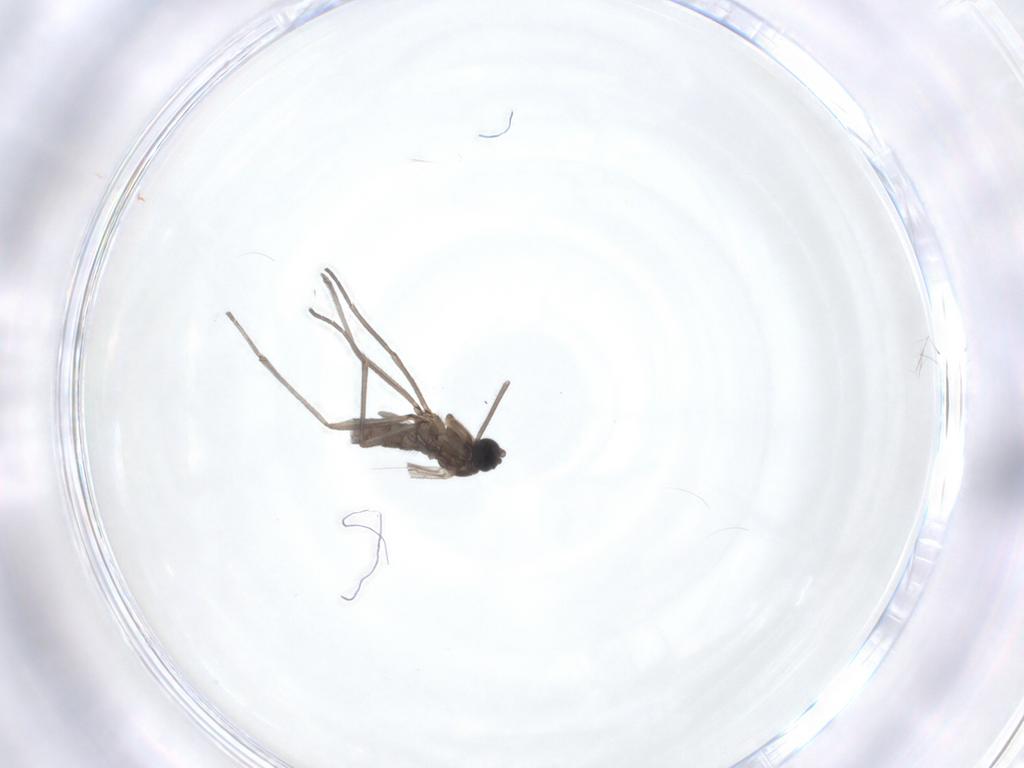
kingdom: Animalia
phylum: Arthropoda
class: Insecta
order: Diptera
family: Sciaridae
